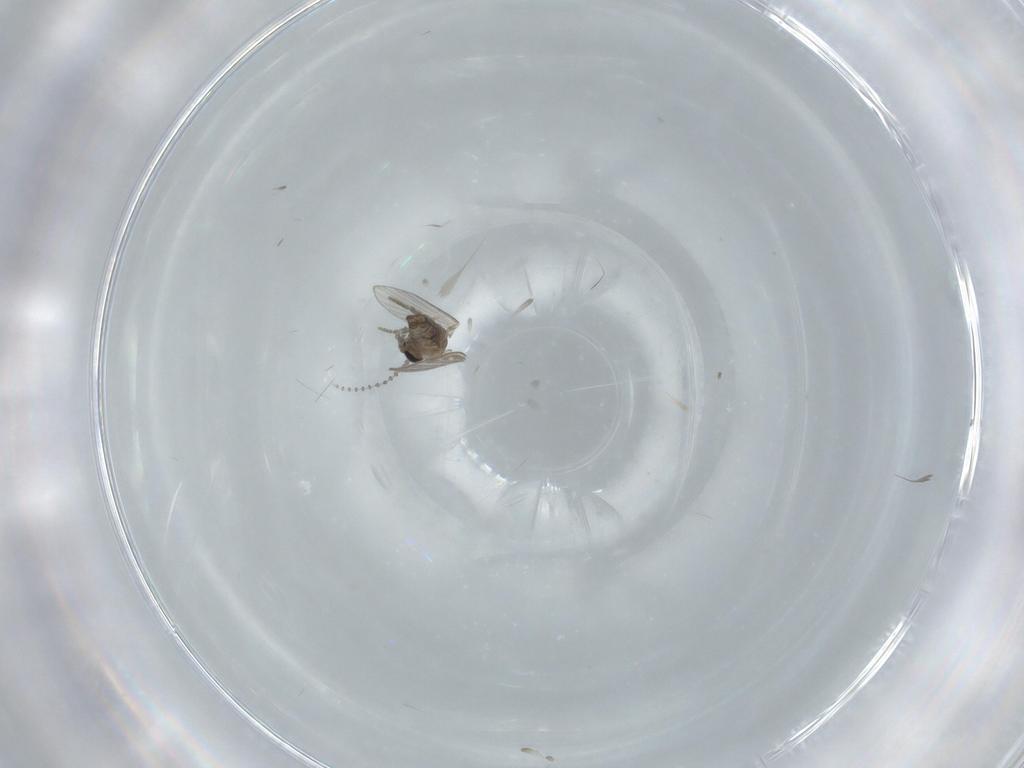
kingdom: Animalia
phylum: Arthropoda
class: Insecta
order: Diptera
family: Psychodidae
